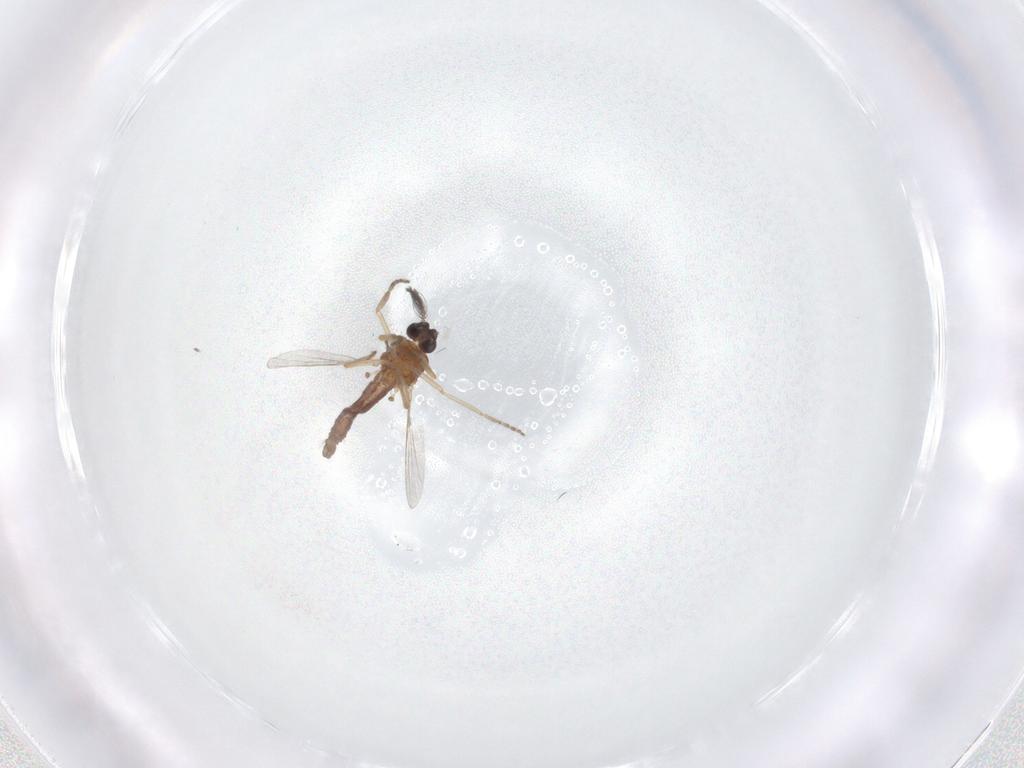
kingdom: Animalia
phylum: Arthropoda
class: Insecta
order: Diptera
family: Ceratopogonidae
